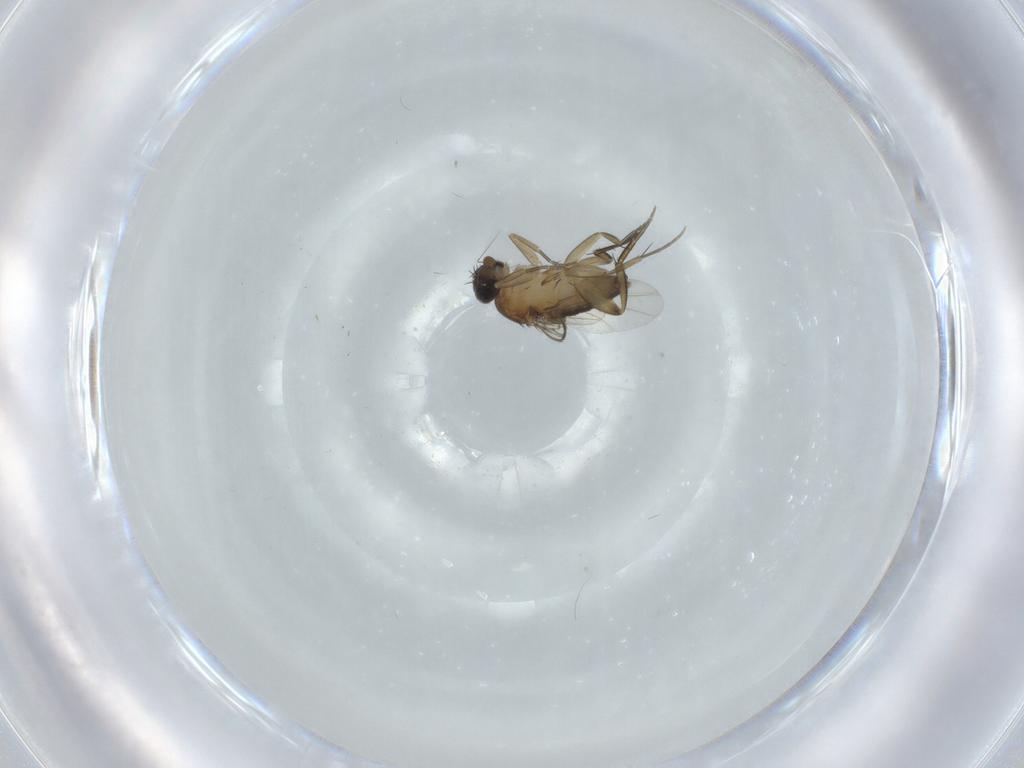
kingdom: Animalia
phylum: Arthropoda
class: Insecta
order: Diptera
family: Phoridae
